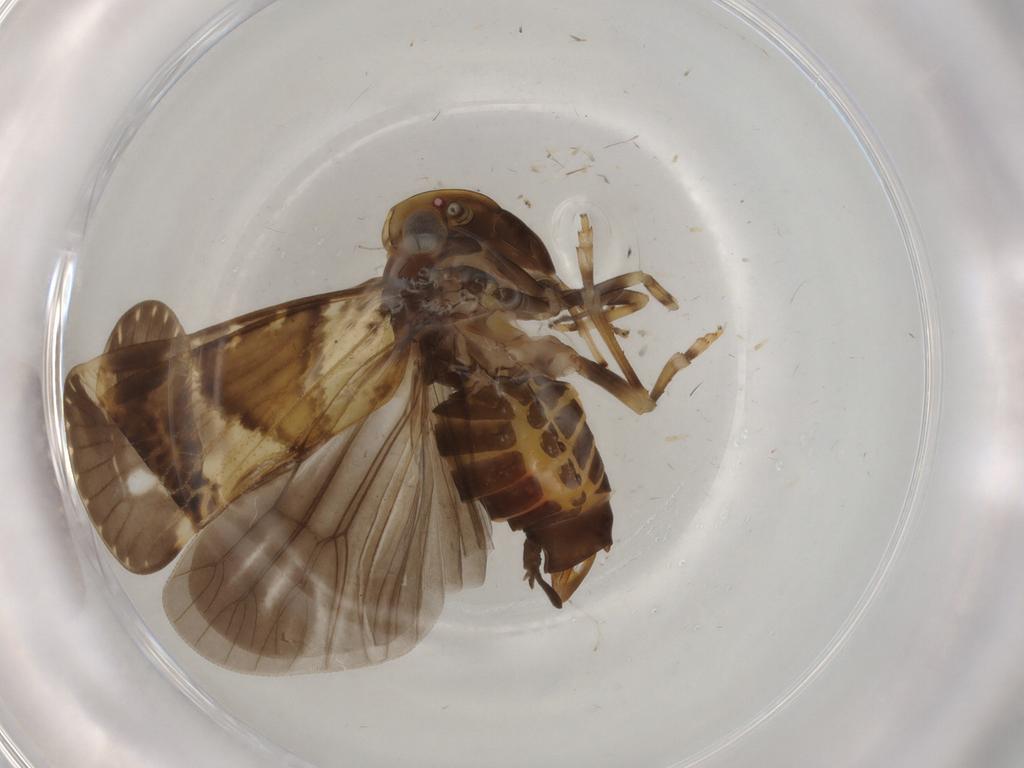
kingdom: Animalia
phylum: Arthropoda
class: Insecta
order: Hemiptera
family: Cixiidae
